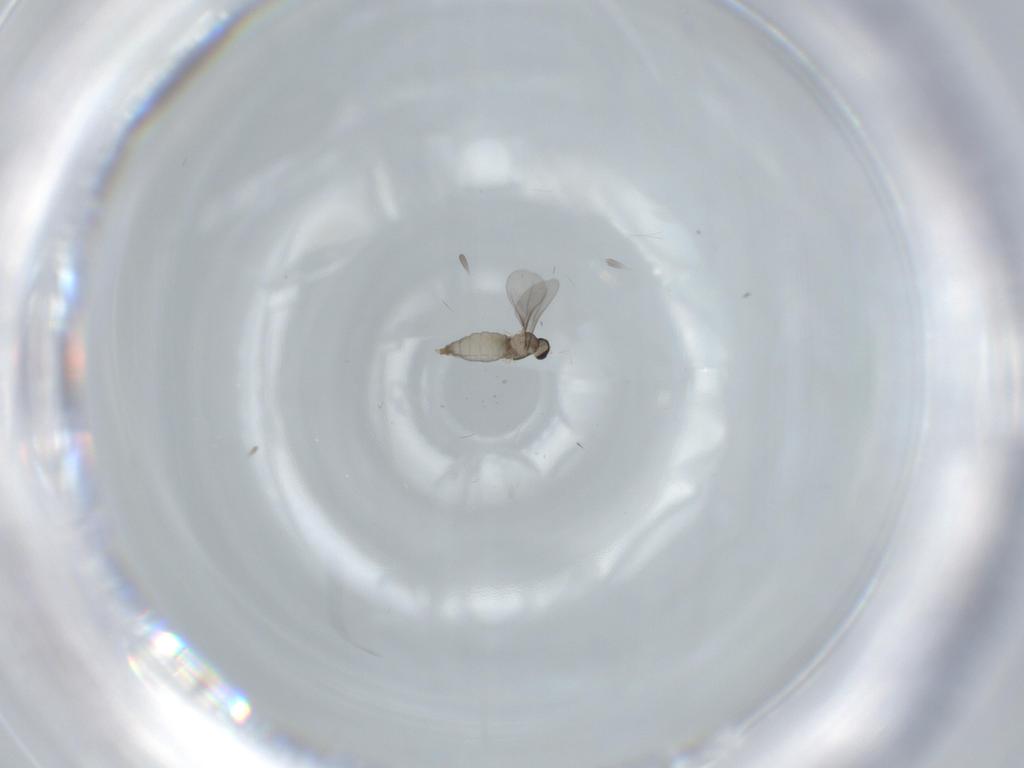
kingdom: Animalia
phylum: Arthropoda
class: Insecta
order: Diptera
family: Cecidomyiidae
